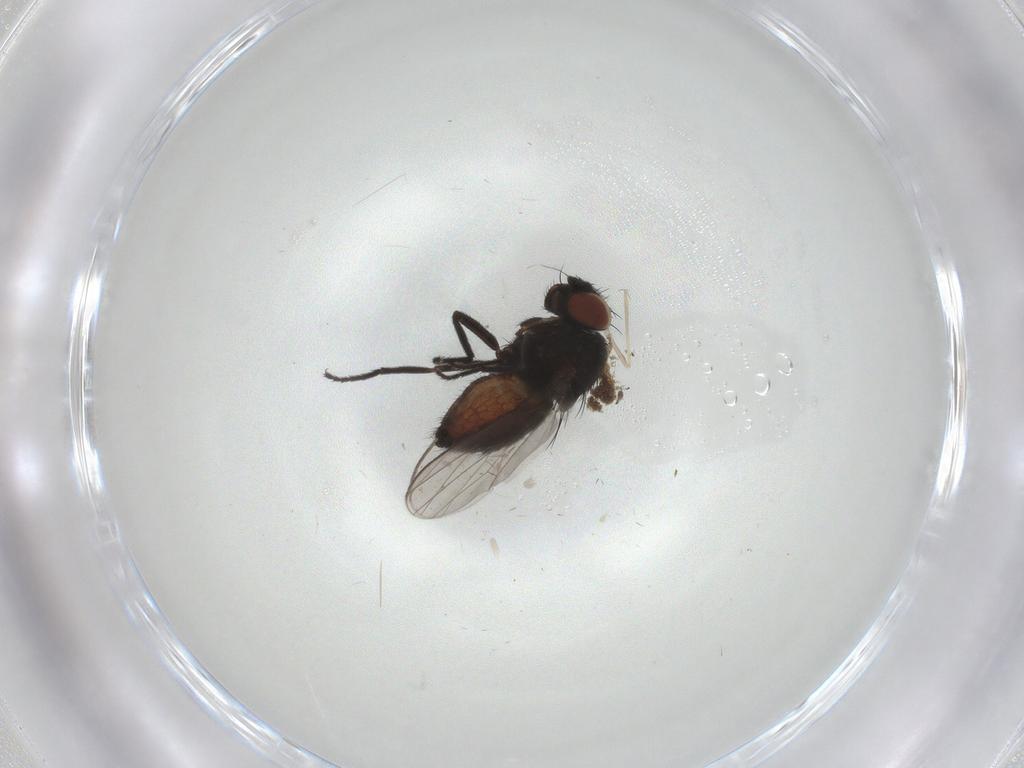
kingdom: Animalia
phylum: Arthropoda
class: Insecta
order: Diptera
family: Milichiidae
